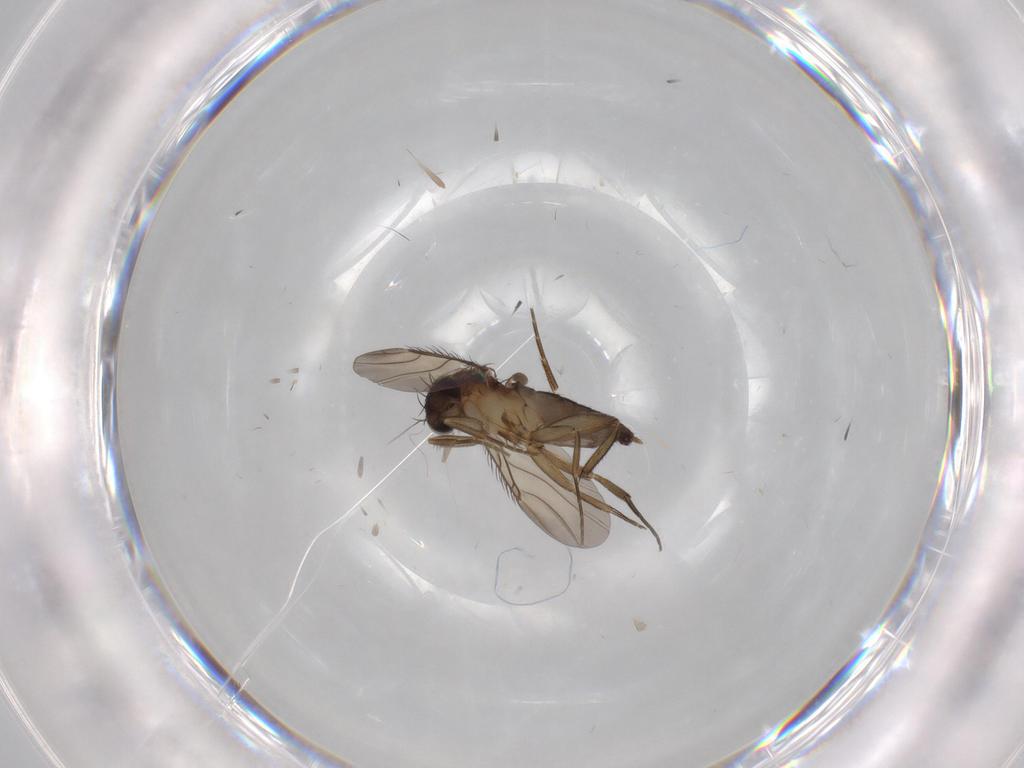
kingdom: Animalia
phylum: Arthropoda
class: Insecta
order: Diptera
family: Phoridae
